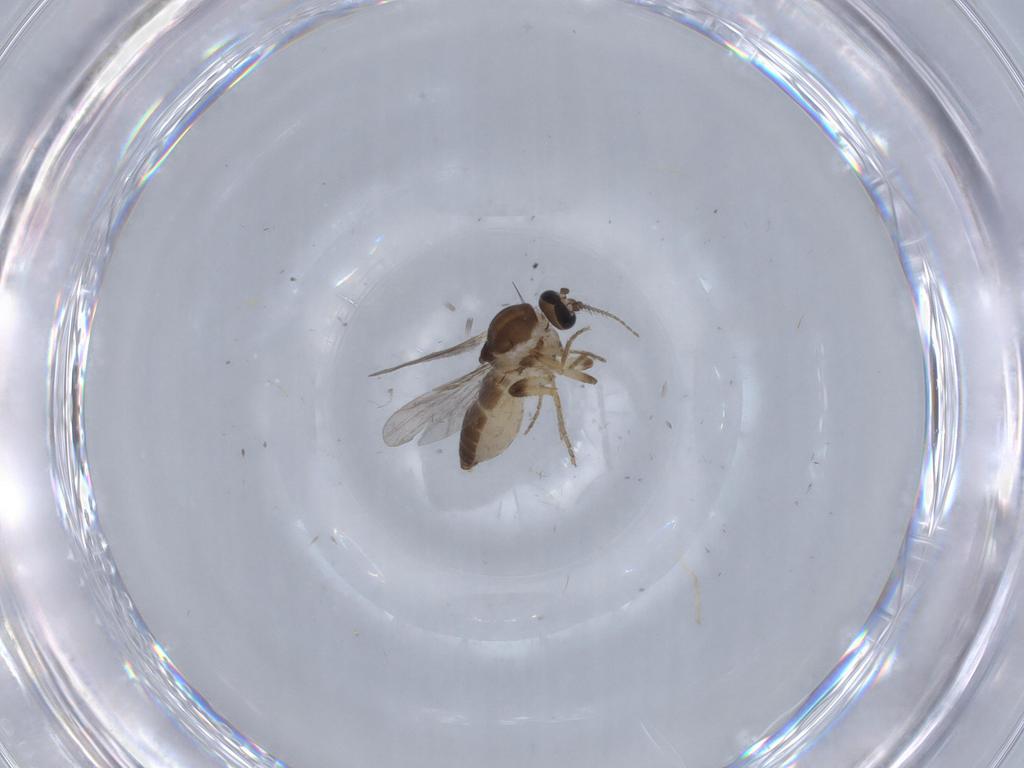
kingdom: Animalia
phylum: Arthropoda
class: Insecta
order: Diptera
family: Ceratopogonidae
